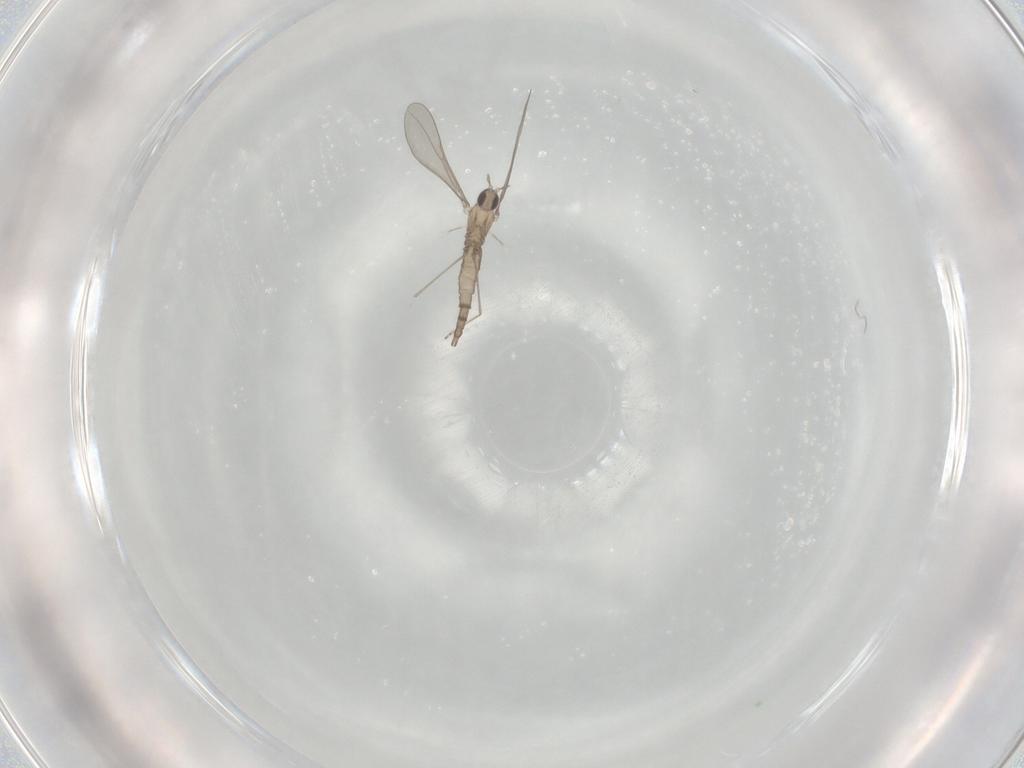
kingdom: Animalia
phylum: Arthropoda
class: Insecta
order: Diptera
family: Cecidomyiidae
